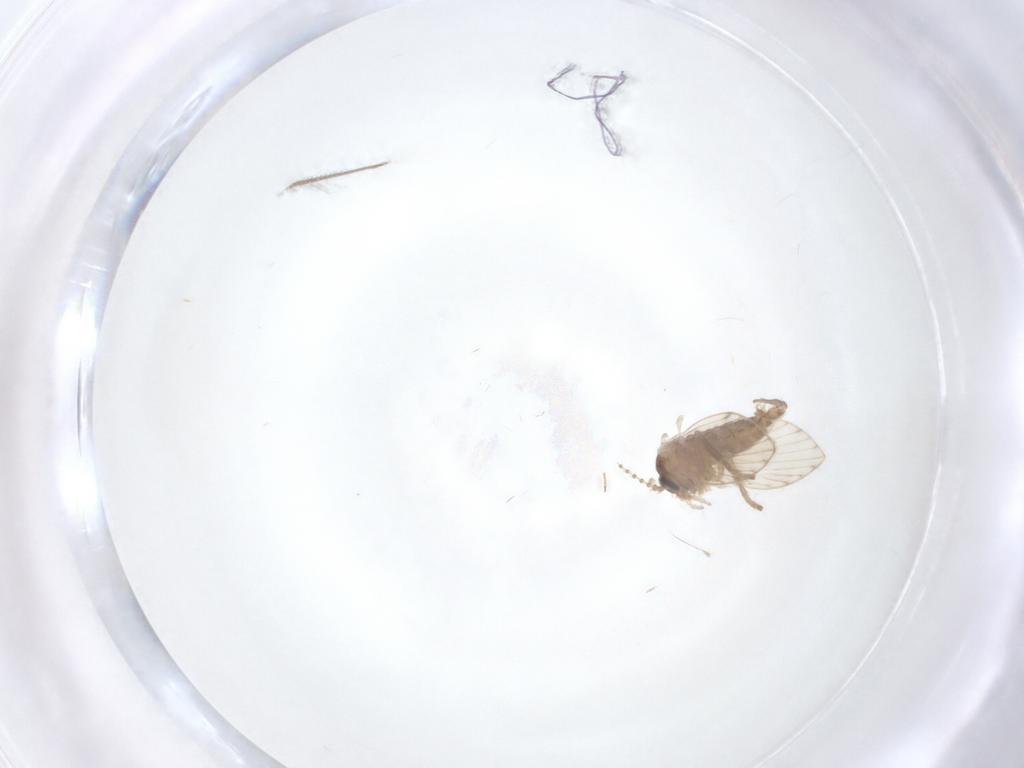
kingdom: Animalia
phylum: Arthropoda
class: Insecta
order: Diptera
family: Psychodidae
